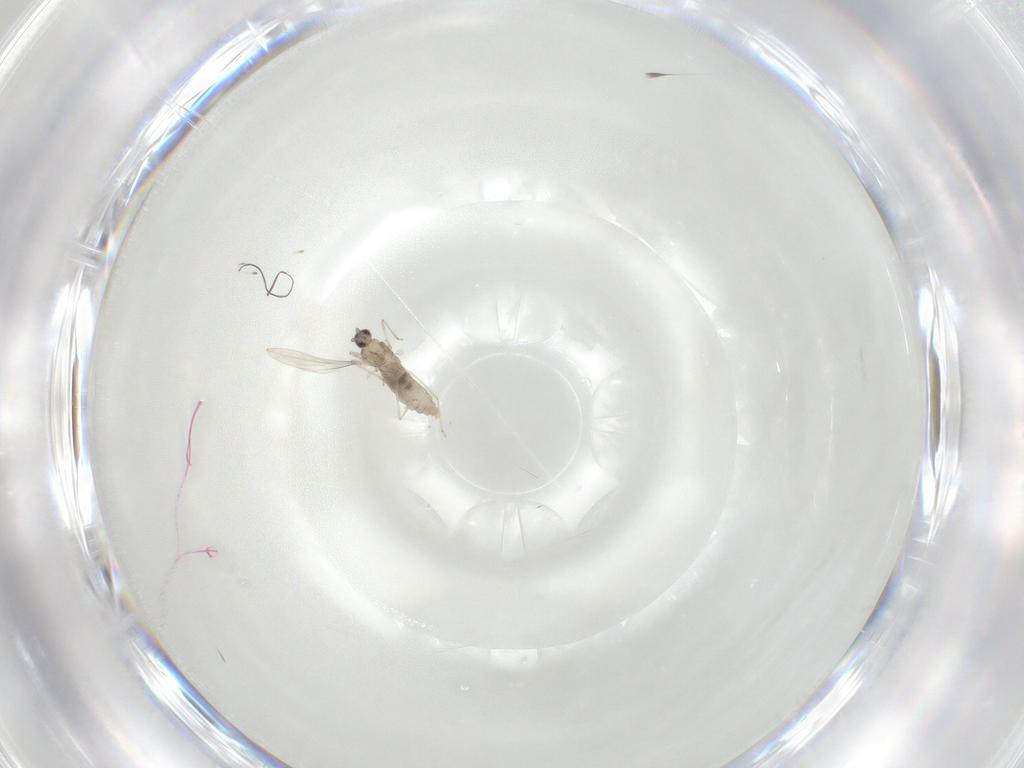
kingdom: Animalia
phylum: Arthropoda
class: Insecta
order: Diptera
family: Cecidomyiidae
